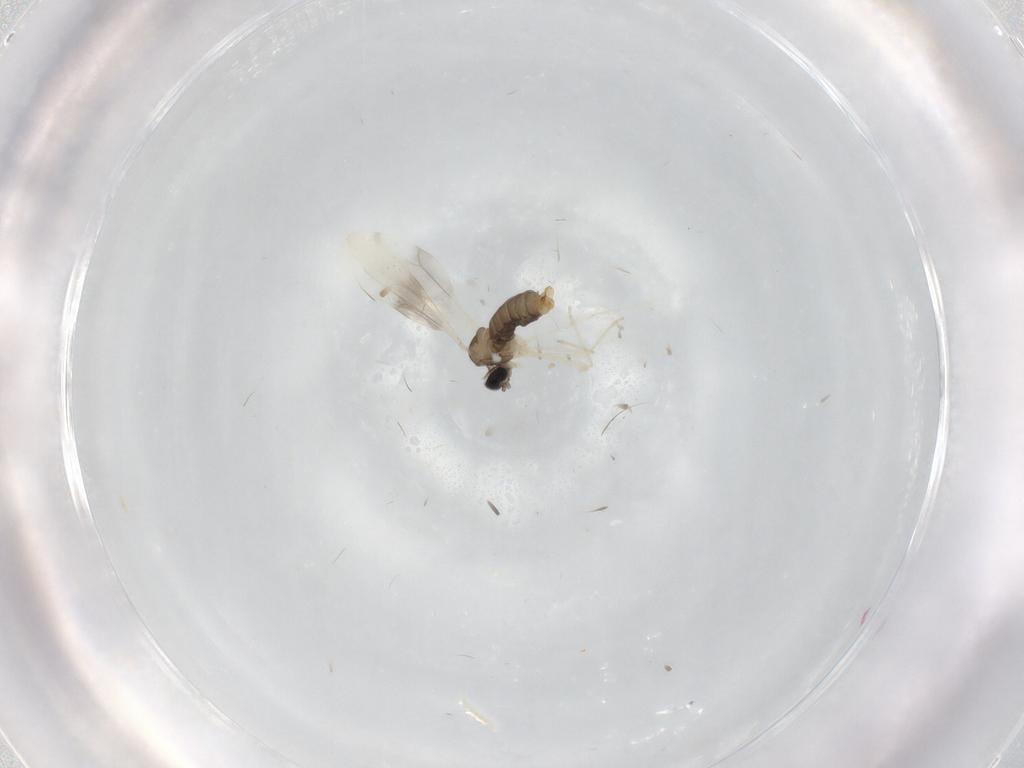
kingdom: Animalia
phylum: Arthropoda
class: Insecta
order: Diptera
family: Muscidae
